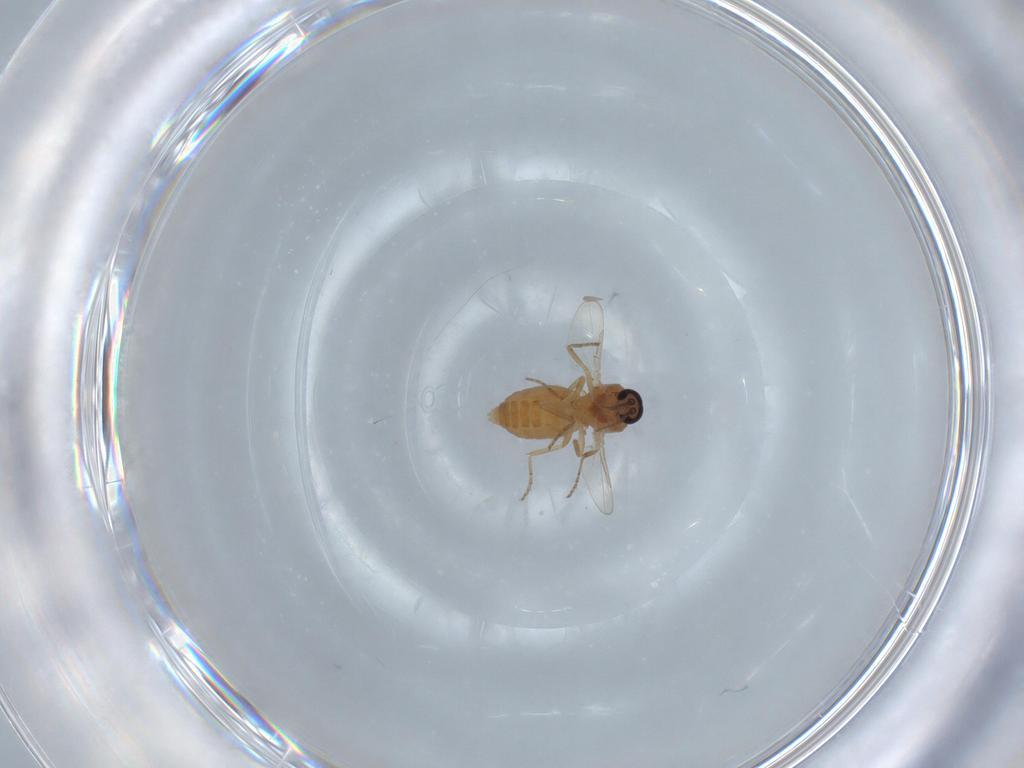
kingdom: Animalia
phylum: Arthropoda
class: Insecta
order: Diptera
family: Ceratopogonidae
